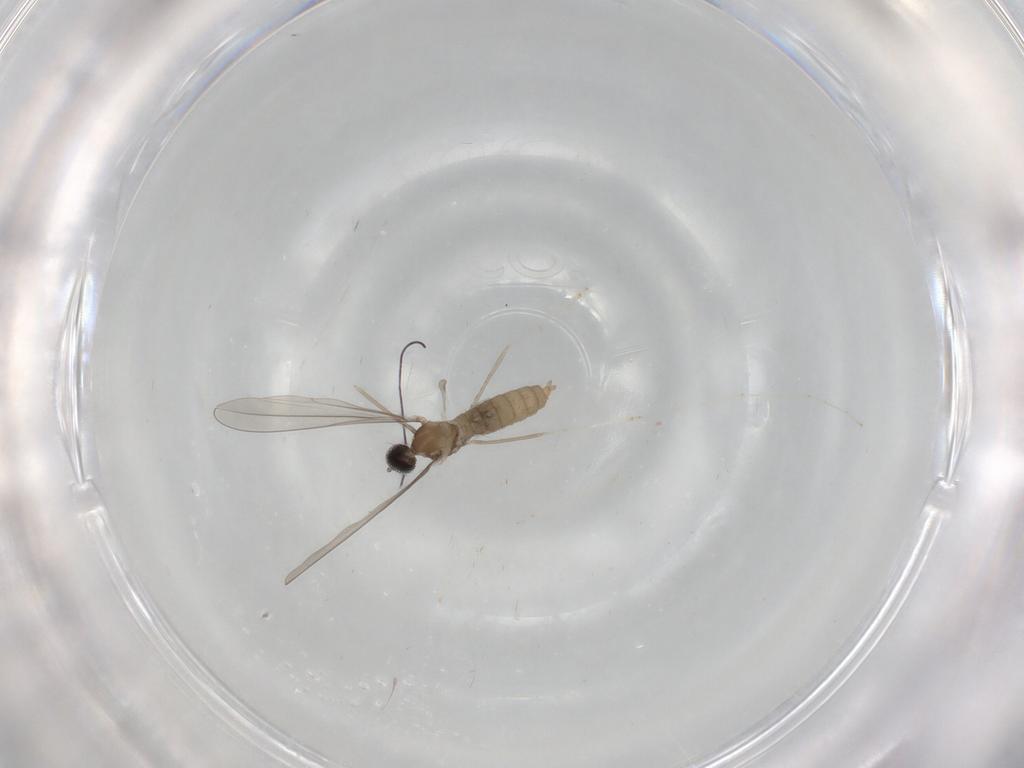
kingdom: Animalia
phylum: Arthropoda
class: Insecta
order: Diptera
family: Cecidomyiidae
